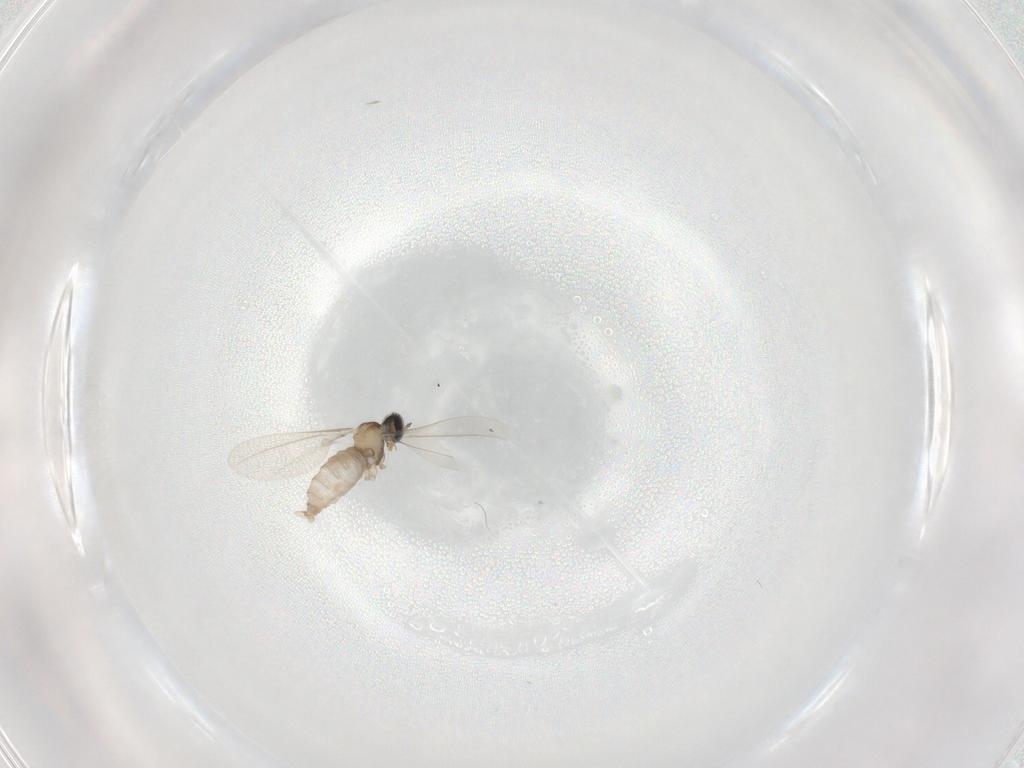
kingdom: Animalia
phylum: Arthropoda
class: Insecta
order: Diptera
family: Cecidomyiidae
